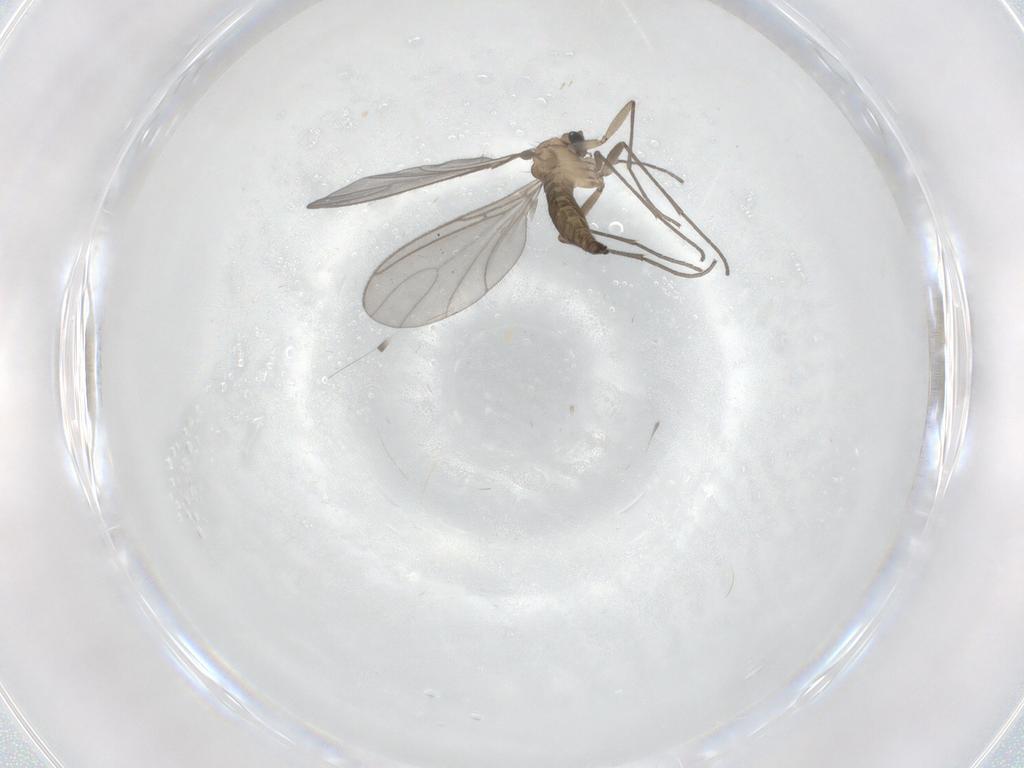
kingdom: Animalia
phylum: Arthropoda
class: Insecta
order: Diptera
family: Sciaridae
